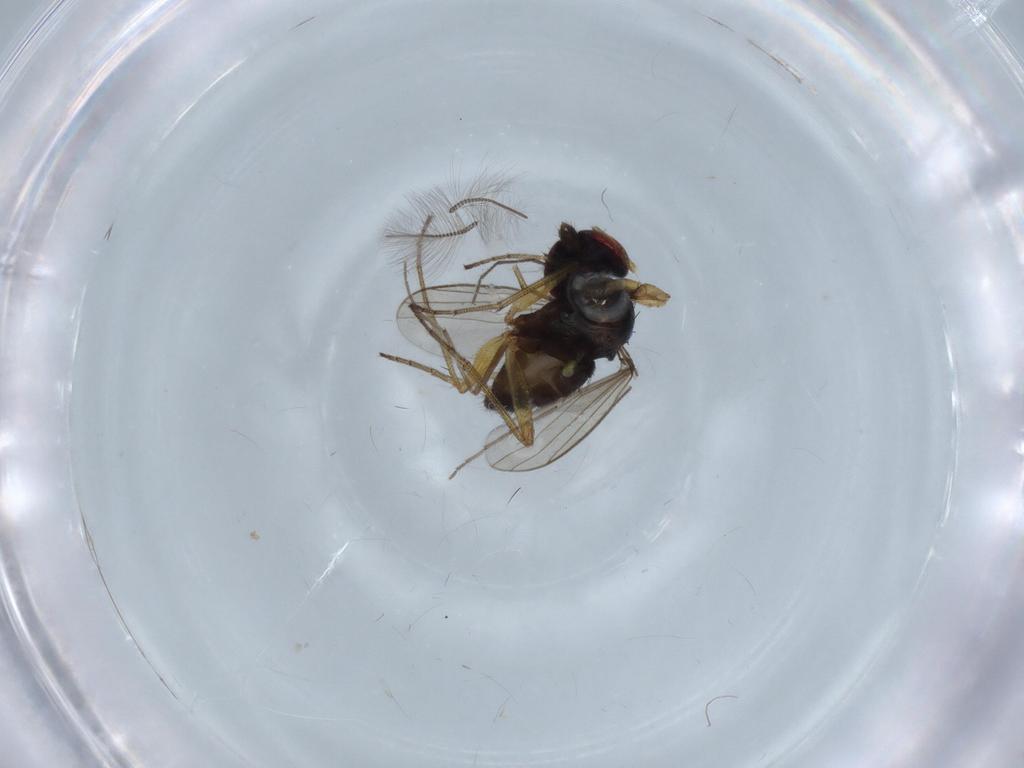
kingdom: Animalia
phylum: Arthropoda
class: Insecta
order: Diptera
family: Dolichopodidae
